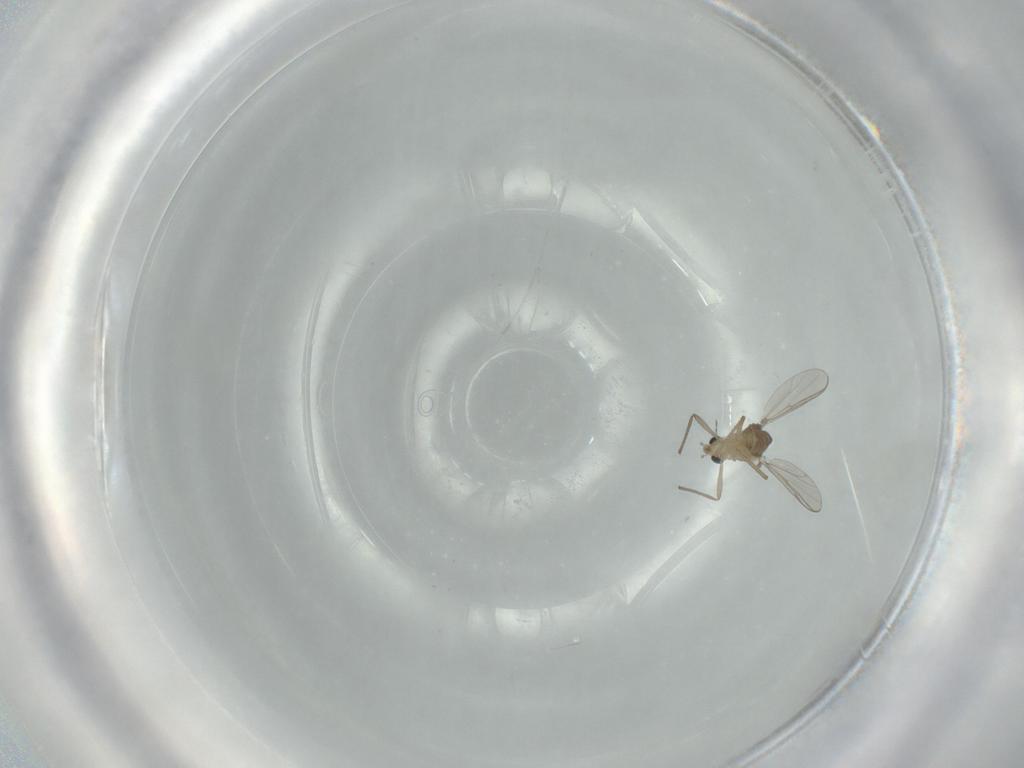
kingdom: Animalia
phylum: Arthropoda
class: Insecta
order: Diptera
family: Chironomidae
